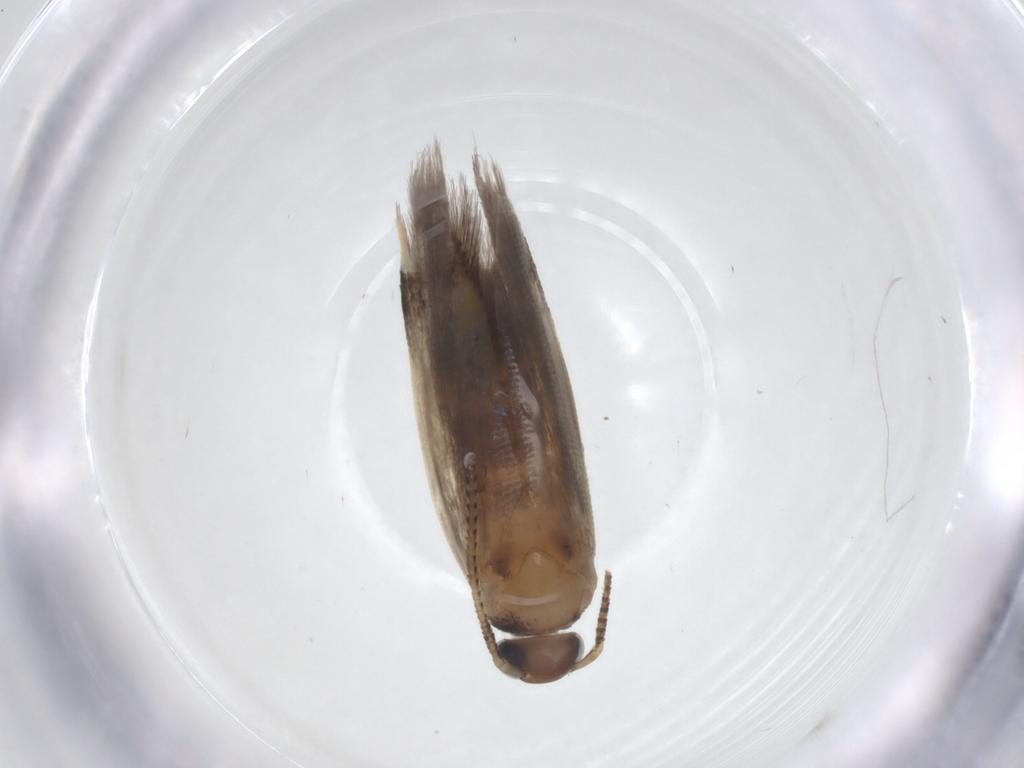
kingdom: Animalia
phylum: Arthropoda
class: Insecta
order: Lepidoptera
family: Gelechiidae
